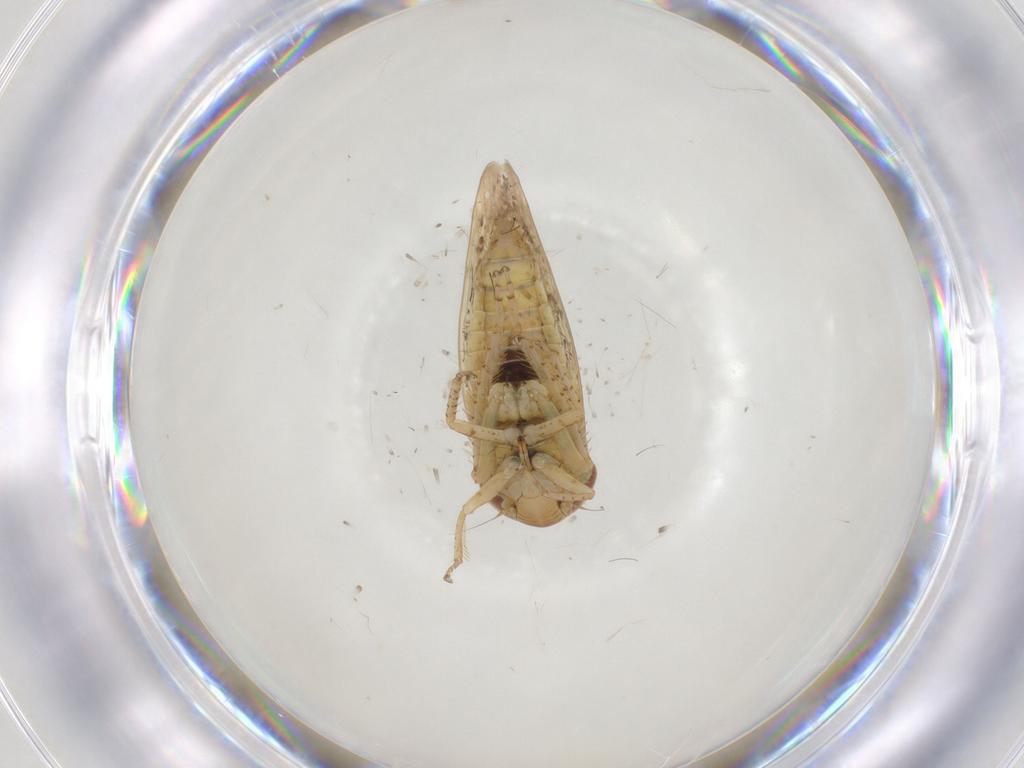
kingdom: Animalia
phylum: Arthropoda
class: Insecta
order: Hemiptera
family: Cicadellidae
